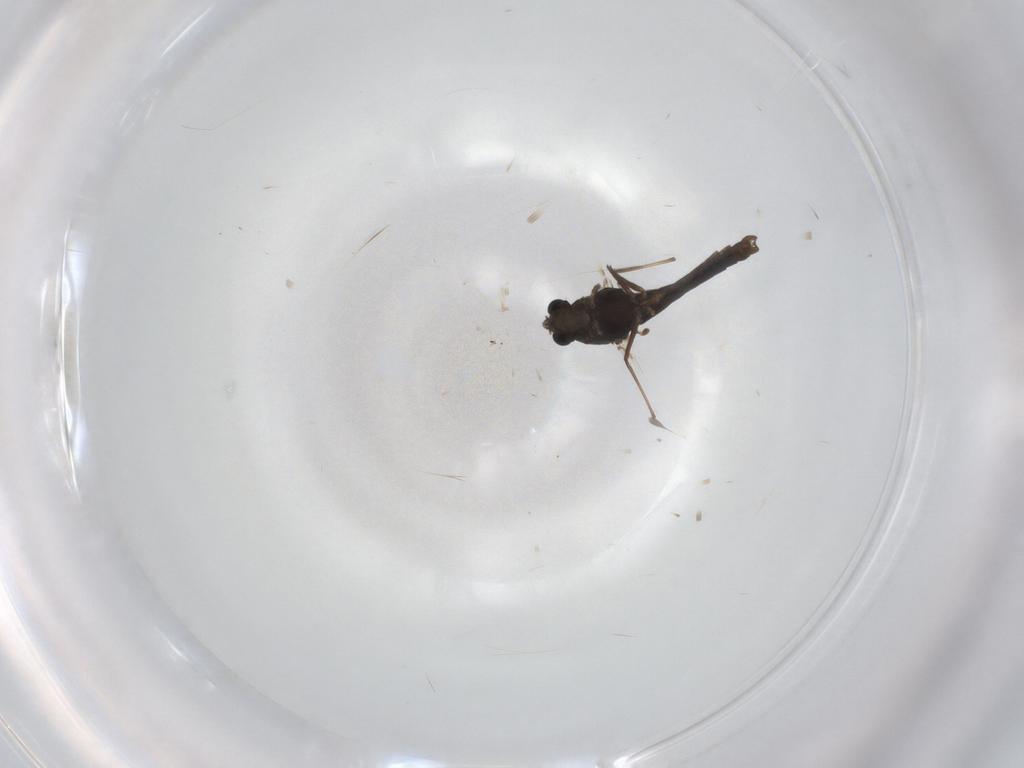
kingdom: Animalia
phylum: Arthropoda
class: Insecta
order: Diptera
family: Chironomidae
